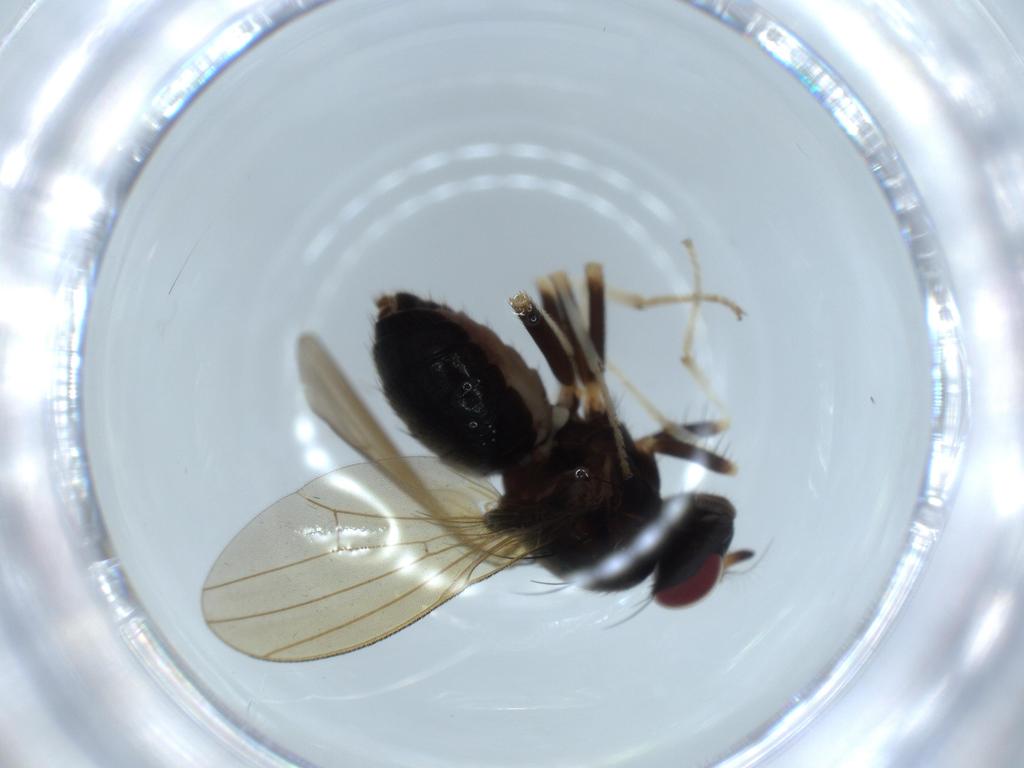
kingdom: Animalia
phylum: Arthropoda
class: Insecta
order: Diptera
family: Lauxaniidae
